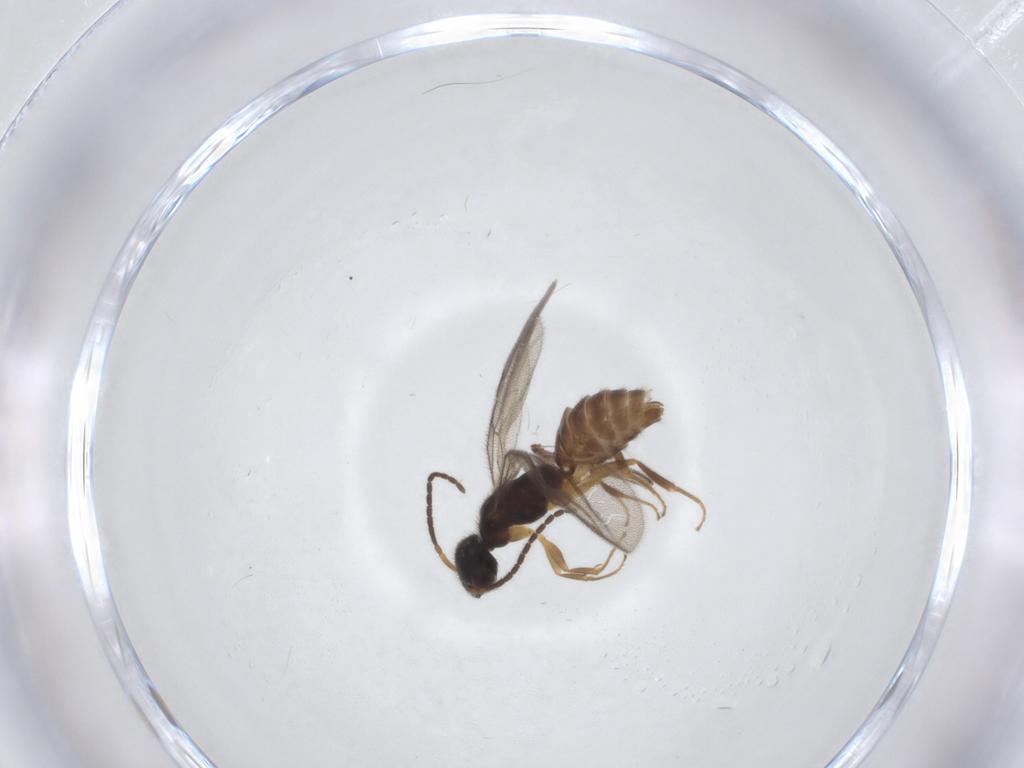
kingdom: Animalia
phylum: Arthropoda
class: Insecta
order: Hymenoptera
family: Bethylidae
